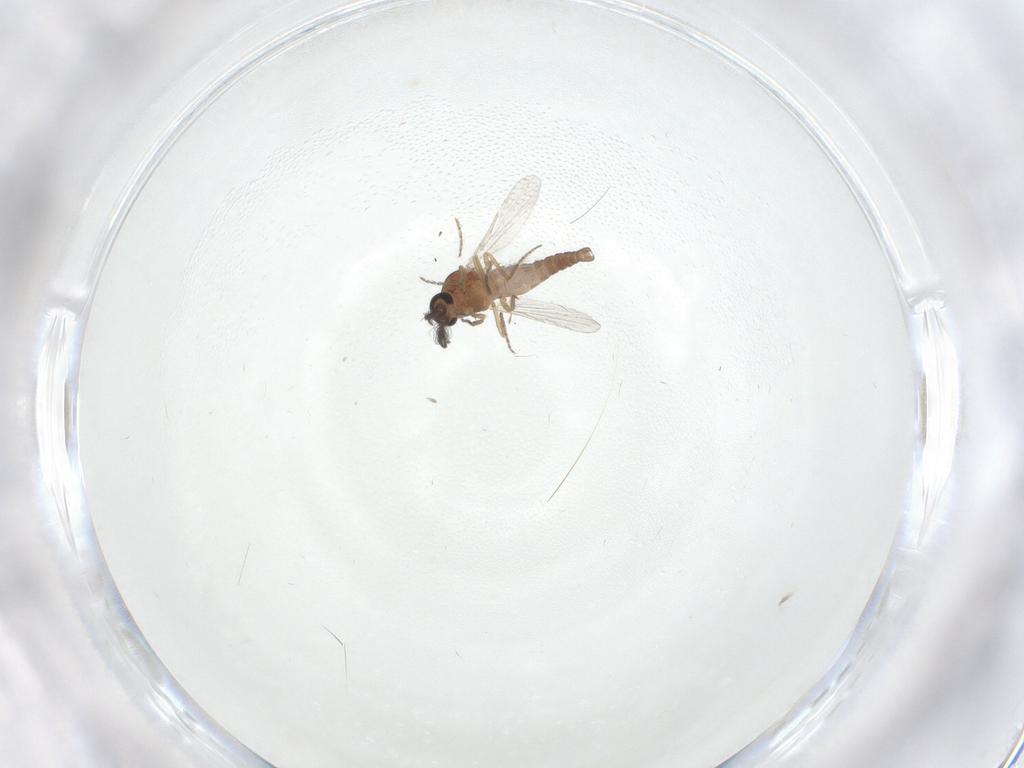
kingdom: Animalia
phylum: Arthropoda
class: Insecta
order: Diptera
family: Ceratopogonidae
